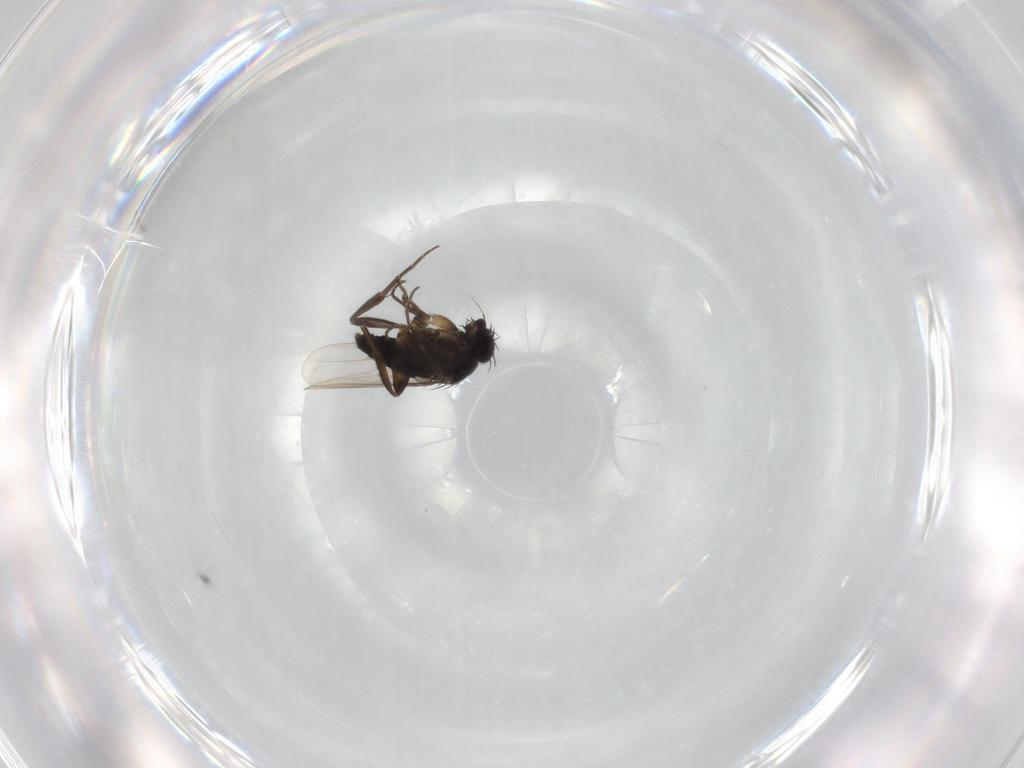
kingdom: Animalia
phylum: Arthropoda
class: Insecta
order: Diptera
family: Phoridae
